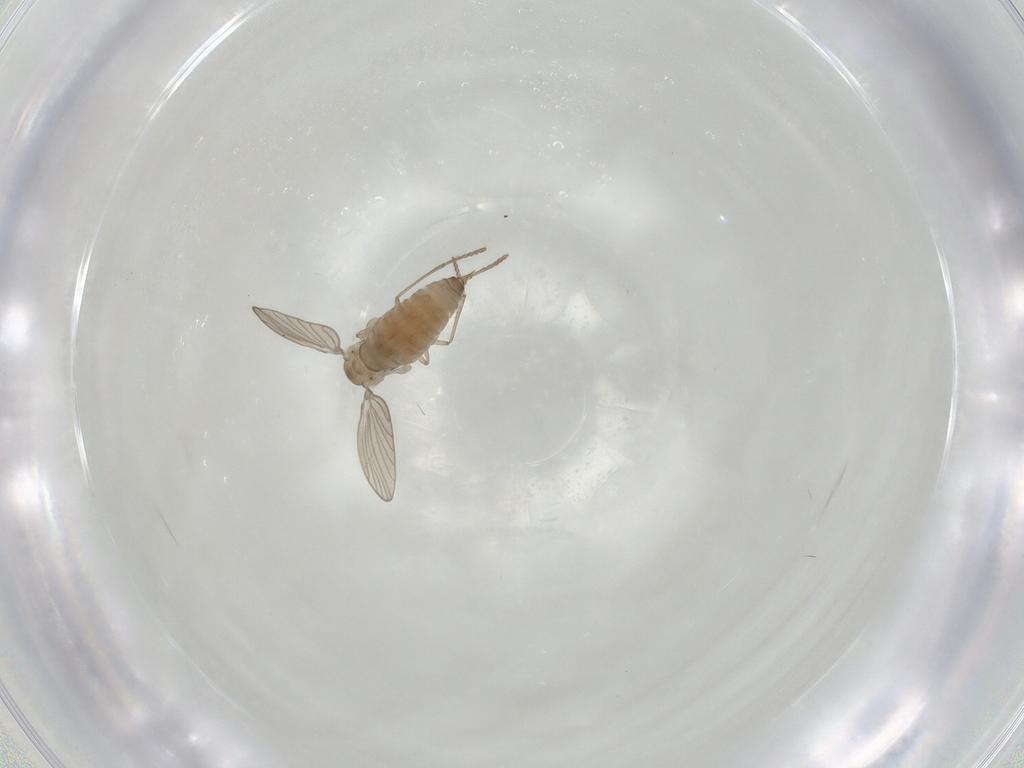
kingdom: Animalia
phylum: Arthropoda
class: Insecta
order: Diptera
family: Psychodidae
